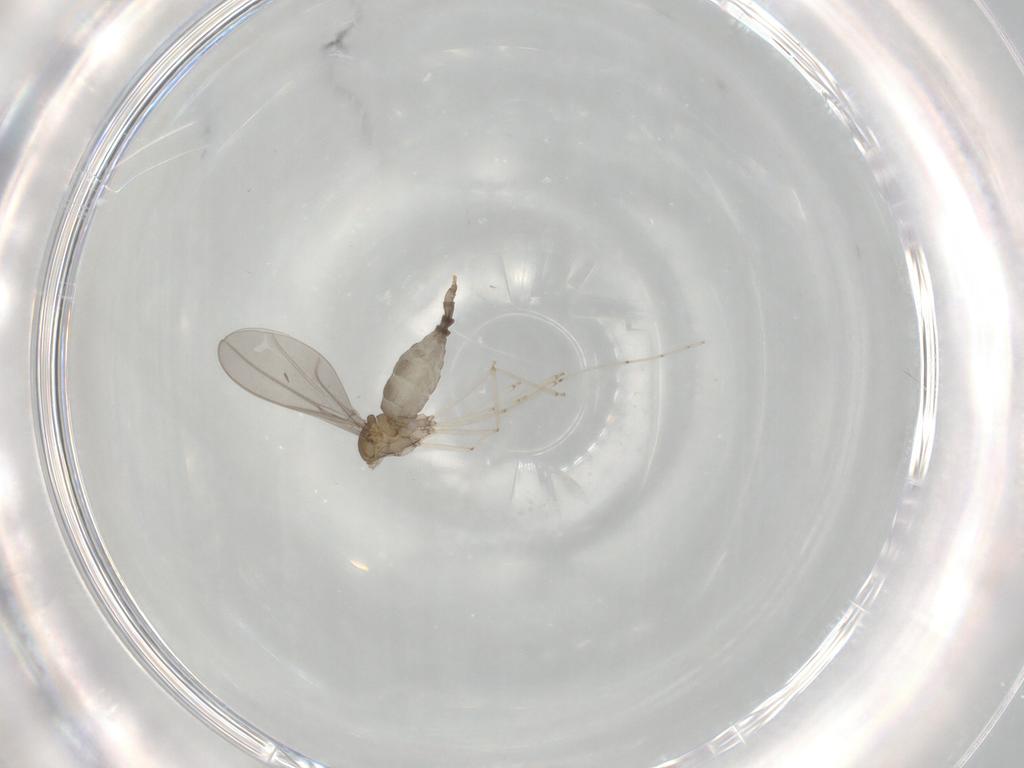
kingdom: Animalia
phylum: Arthropoda
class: Insecta
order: Diptera
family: Cecidomyiidae
